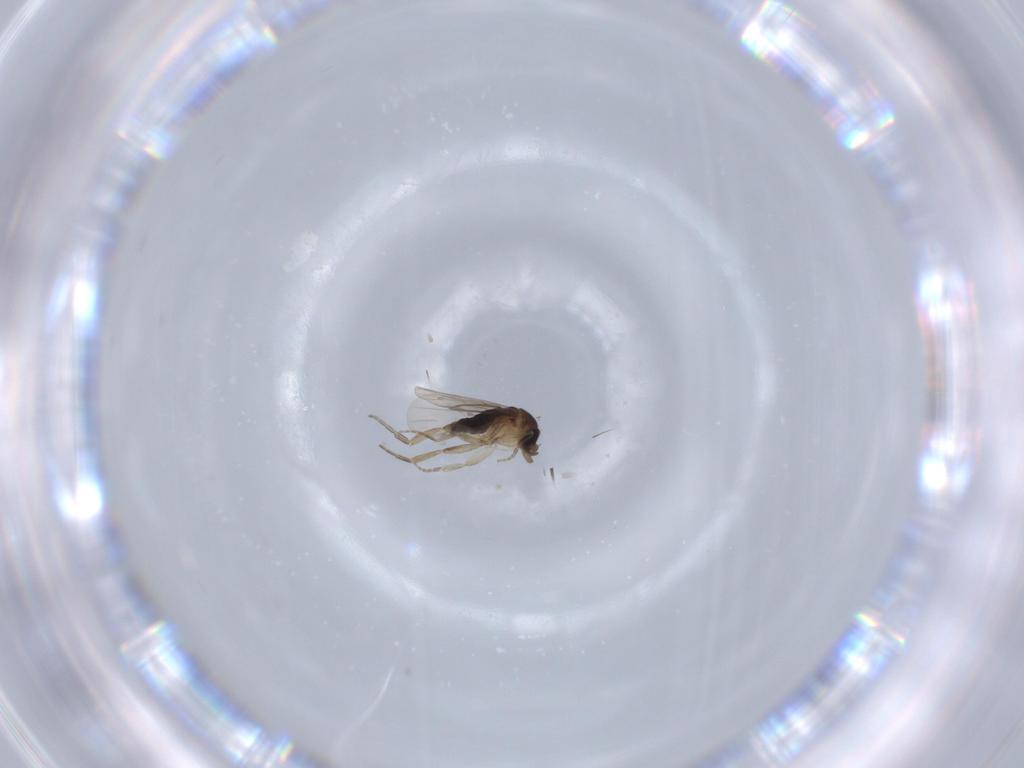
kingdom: Animalia
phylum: Arthropoda
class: Insecta
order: Diptera
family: Phoridae
